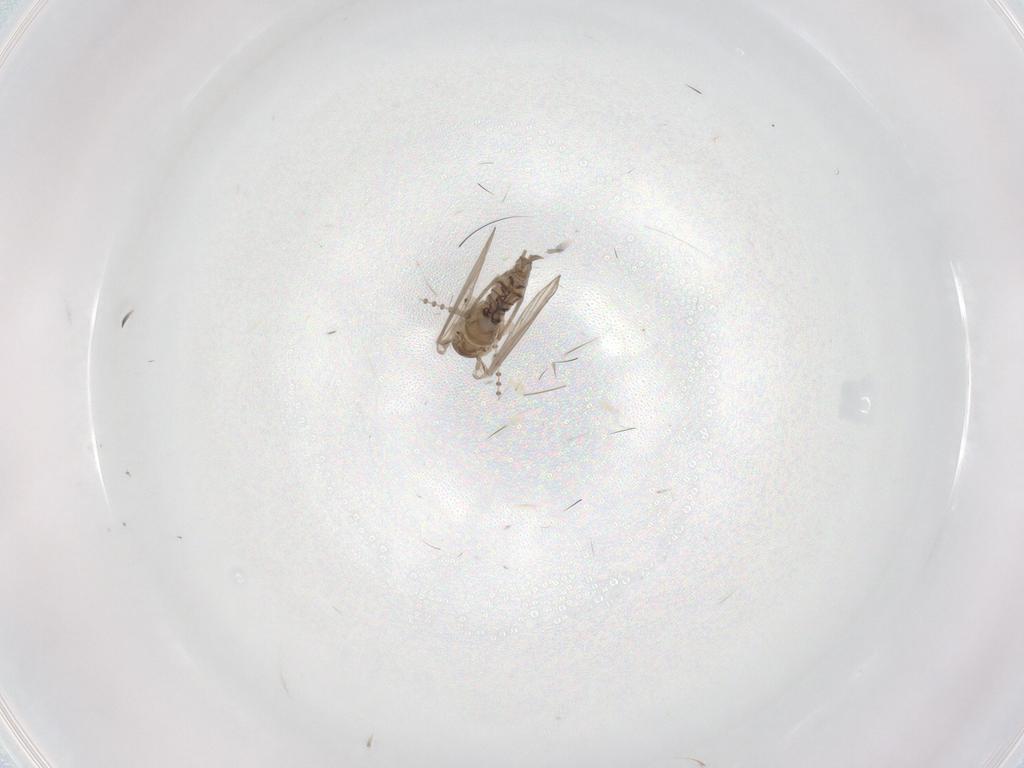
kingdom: Animalia
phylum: Arthropoda
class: Insecta
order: Diptera
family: Psychodidae
